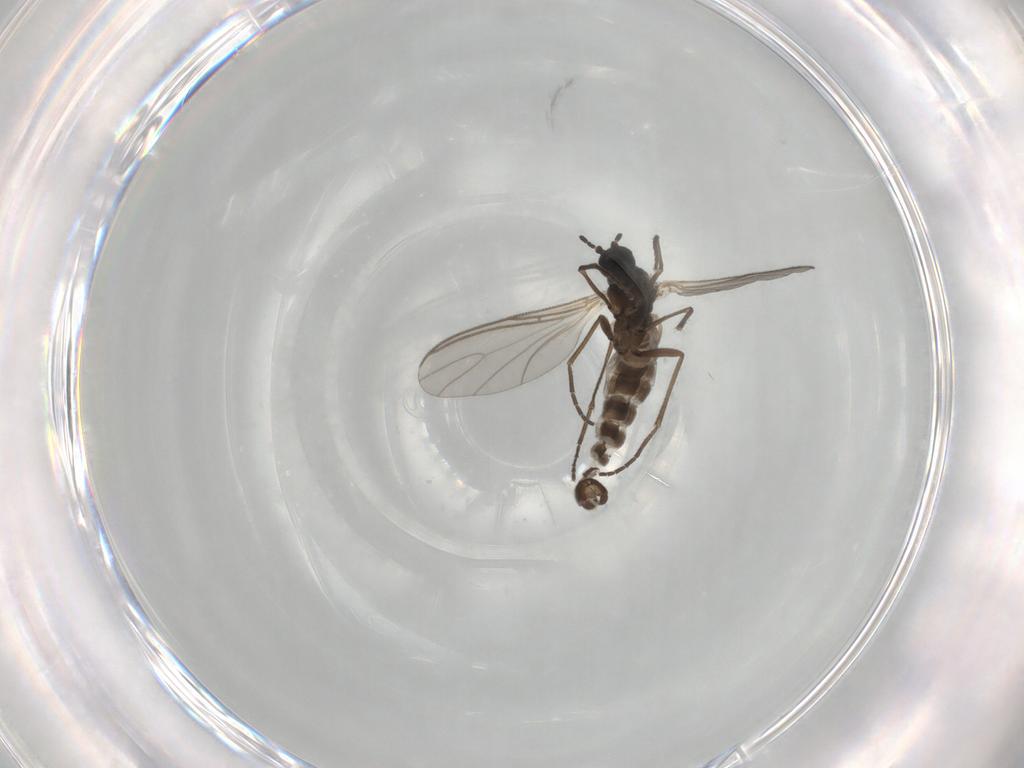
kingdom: Animalia
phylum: Arthropoda
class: Insecta
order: Diptera
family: Sciaridae
